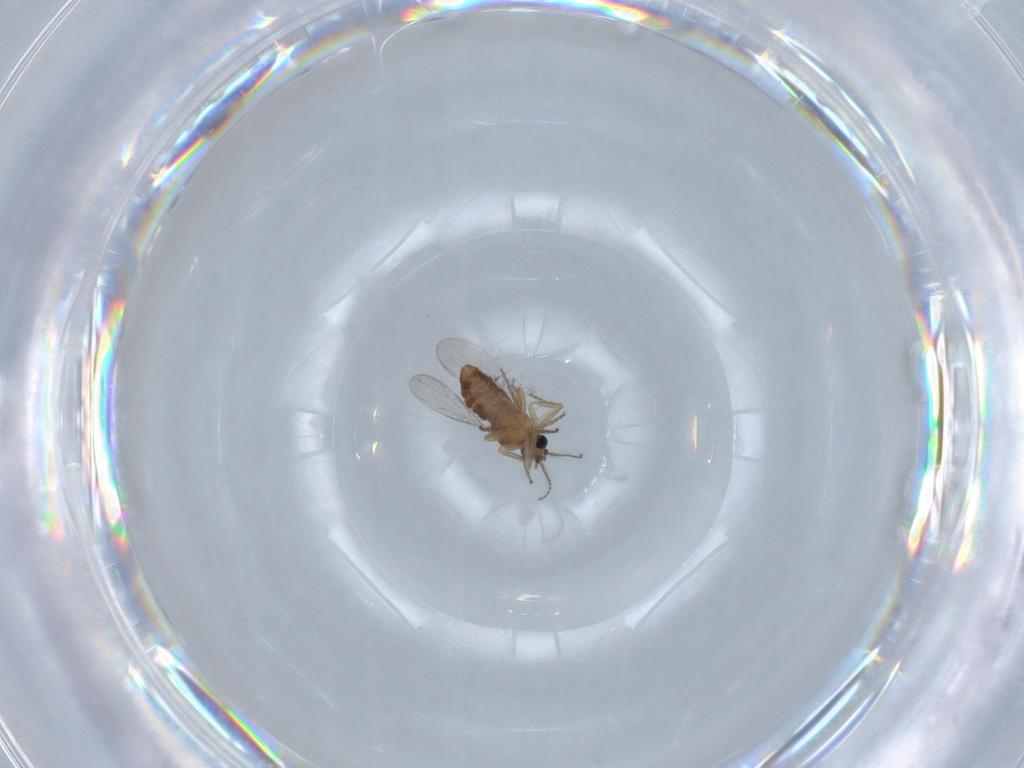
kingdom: Animalia
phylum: Arthropoda
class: Insecta
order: Diptera
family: Ceratopogonidae
